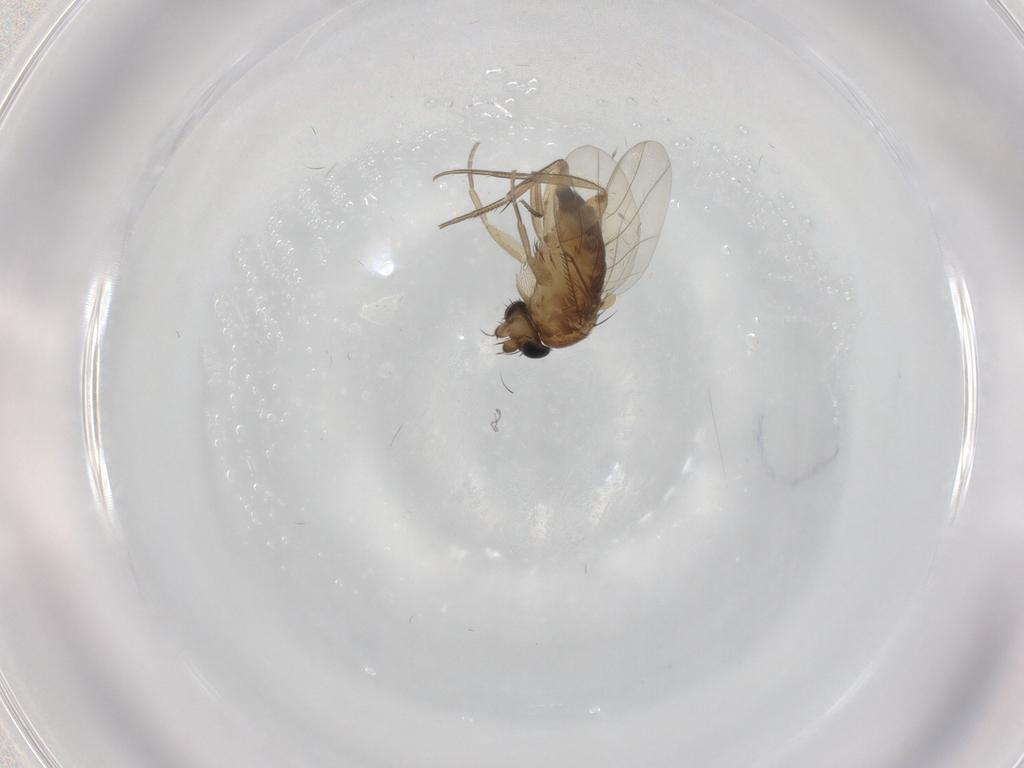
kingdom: Animalia
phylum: Arthropoda
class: Insecta
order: Diptera
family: Phoridae
